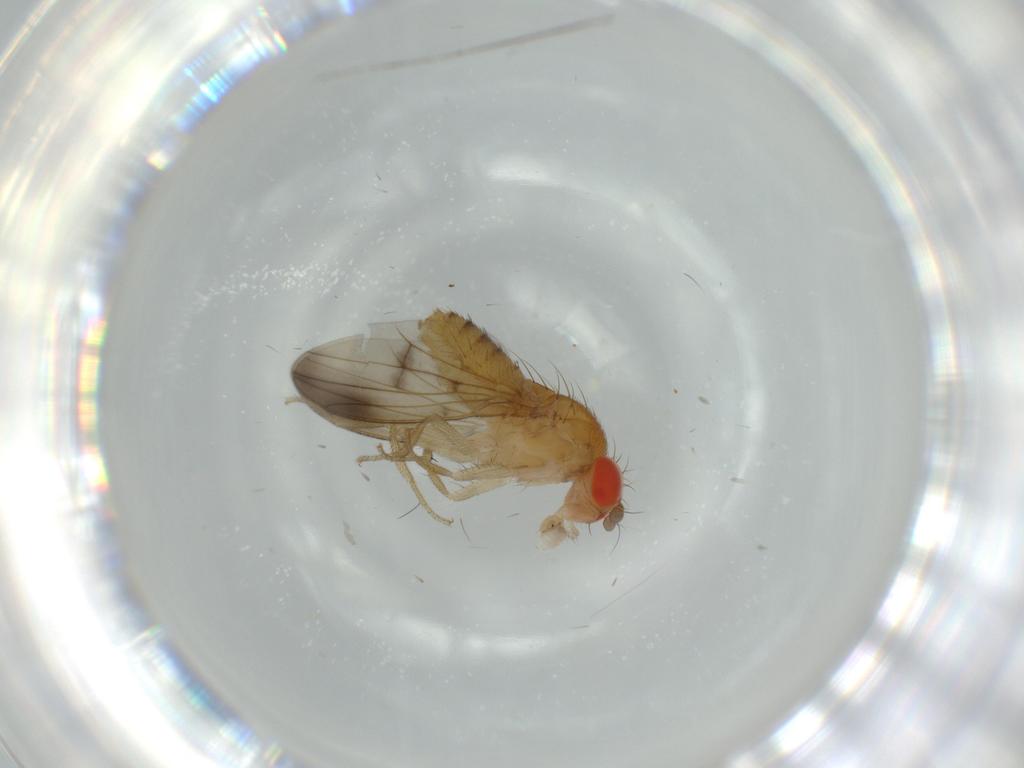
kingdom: Animalia
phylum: Arthropoda
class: Insecta
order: Diptera
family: Drosophilidae
